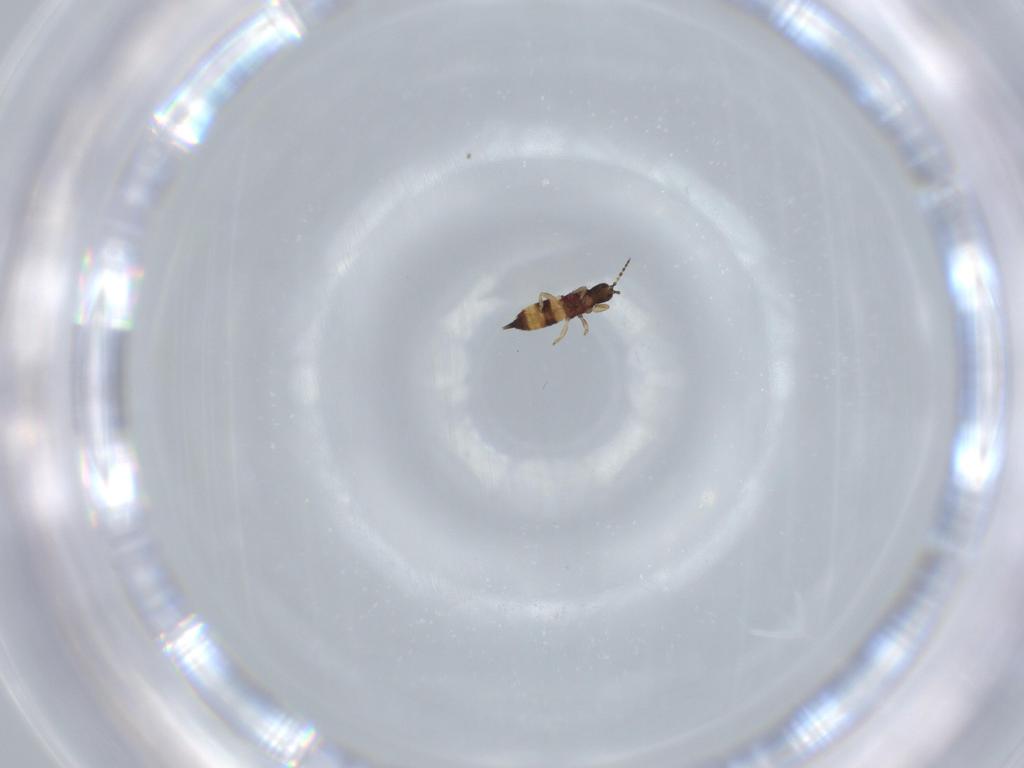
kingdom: Animalia
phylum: Arthropoda
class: Insecta
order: Thysanoptera
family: Phlaeothripidae
